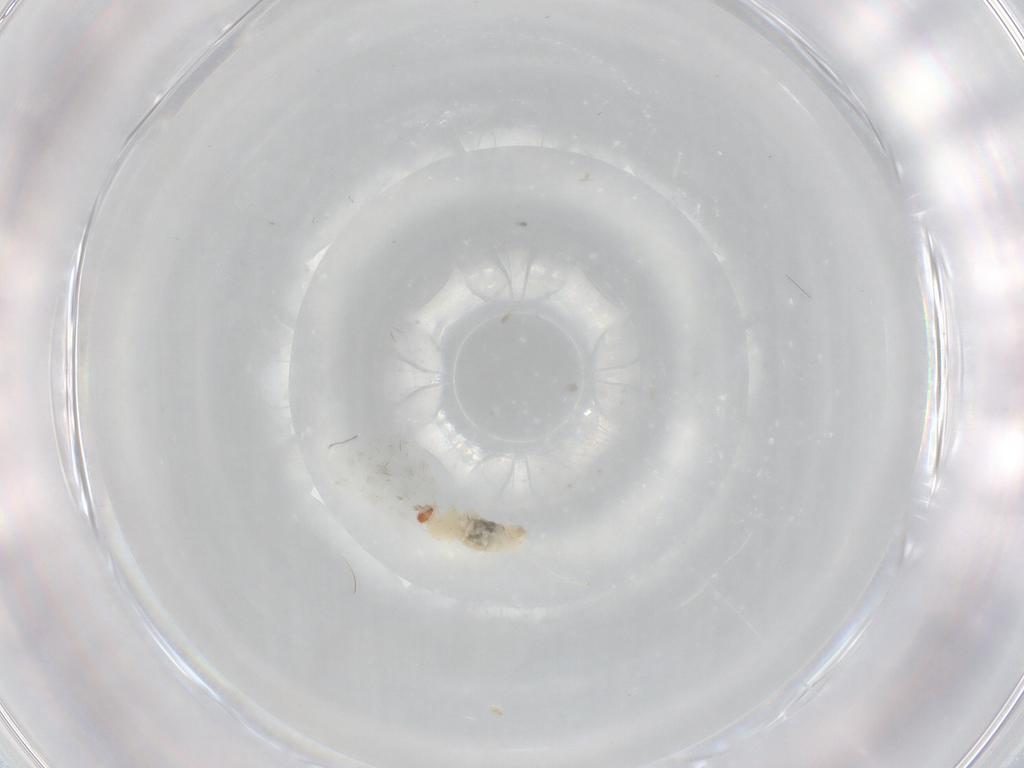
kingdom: Animalia
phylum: Arthropoda
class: Insecta
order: Diptera
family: Cecidomyiidae
